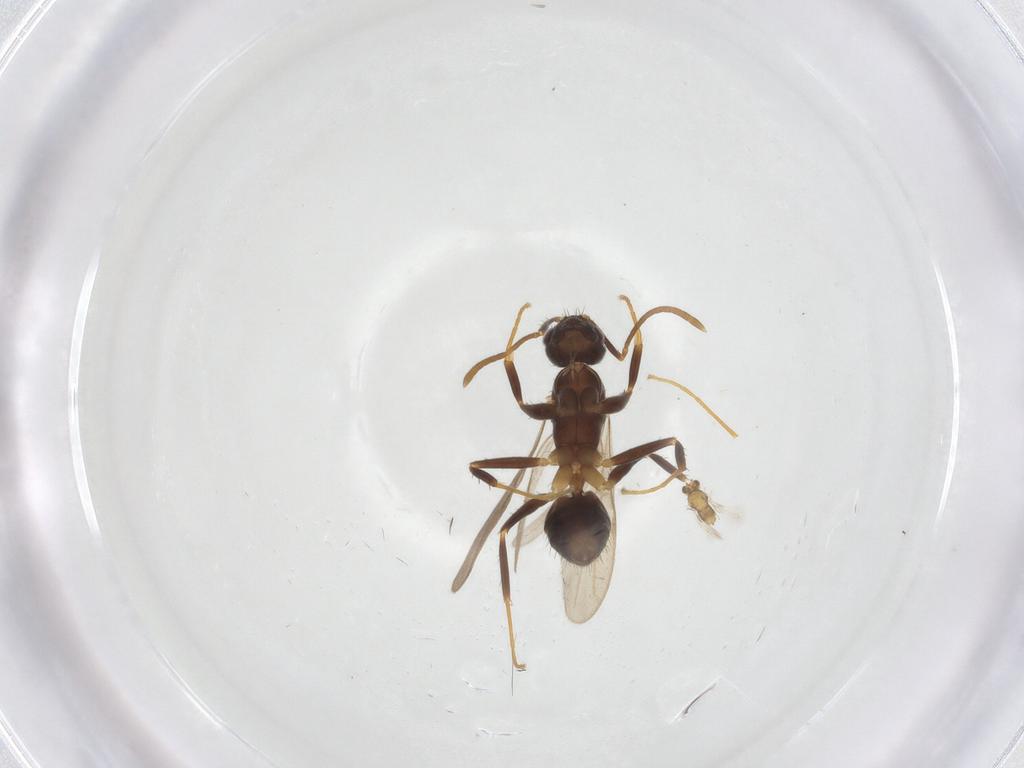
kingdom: Animalia
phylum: Arthropoda
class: Insecta
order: Hymenoptera
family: Formicidae
